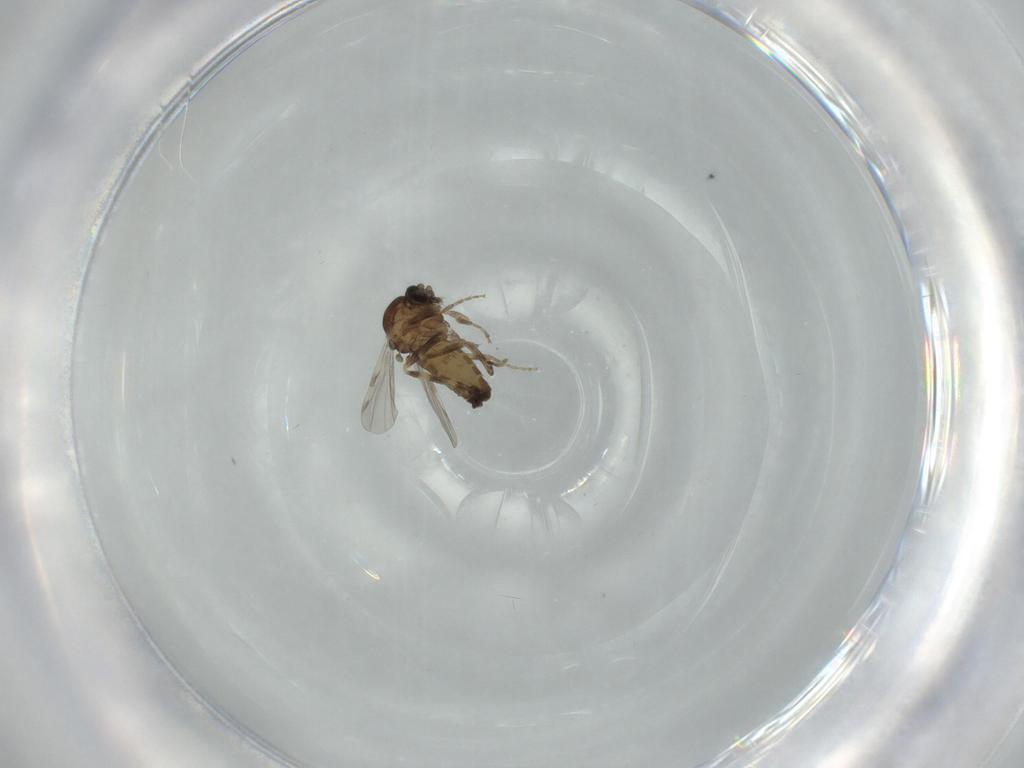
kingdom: Animalia
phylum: Arthropoda
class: Insecta
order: Diptera
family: Ceratopogonidae
